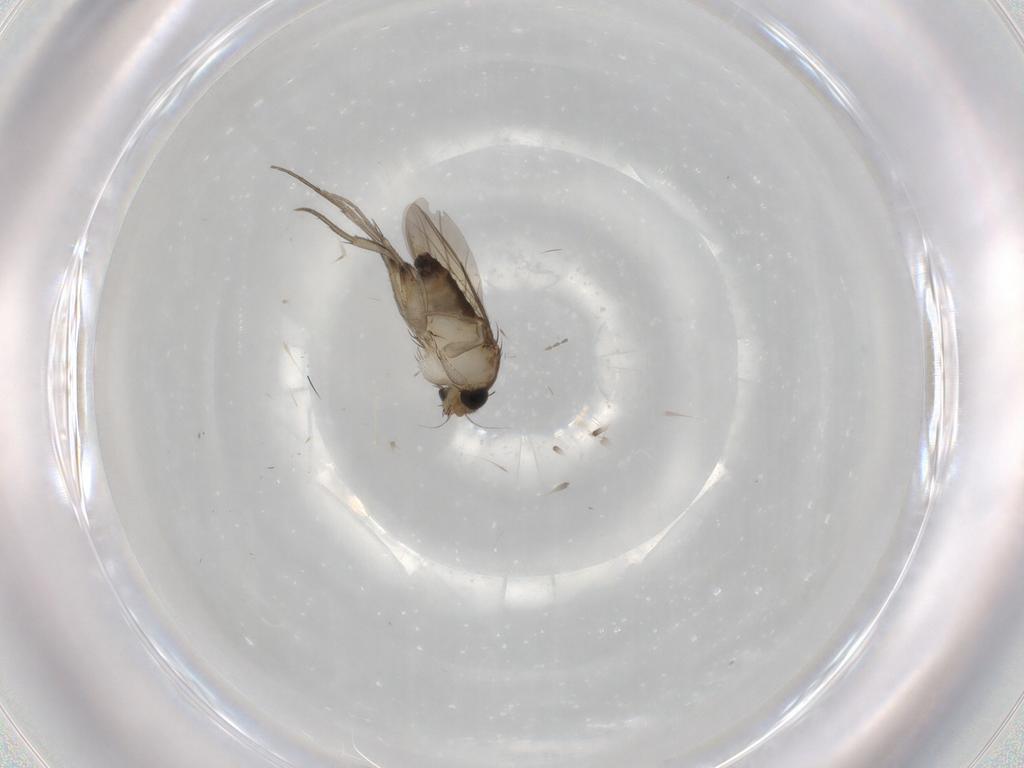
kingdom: Animalia
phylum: Arthropoda
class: Insecta
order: Diptera
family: Phoridae
